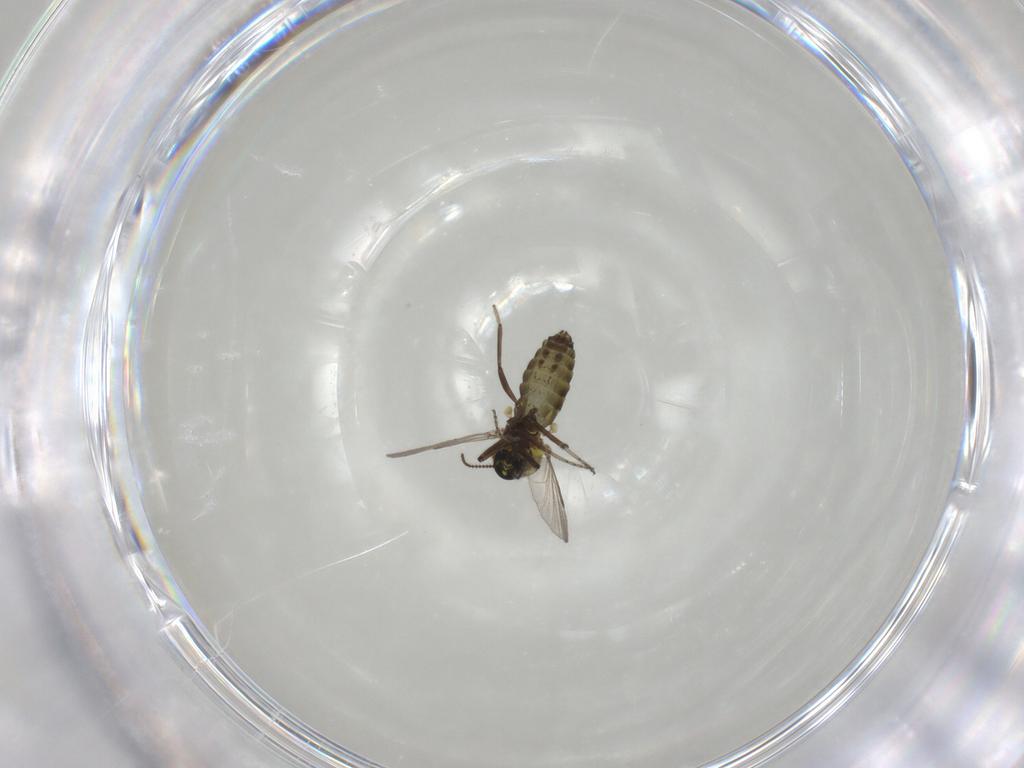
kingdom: Animalia
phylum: Arthropoda
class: Insecta
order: Diptera
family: Ceratopogonidae
